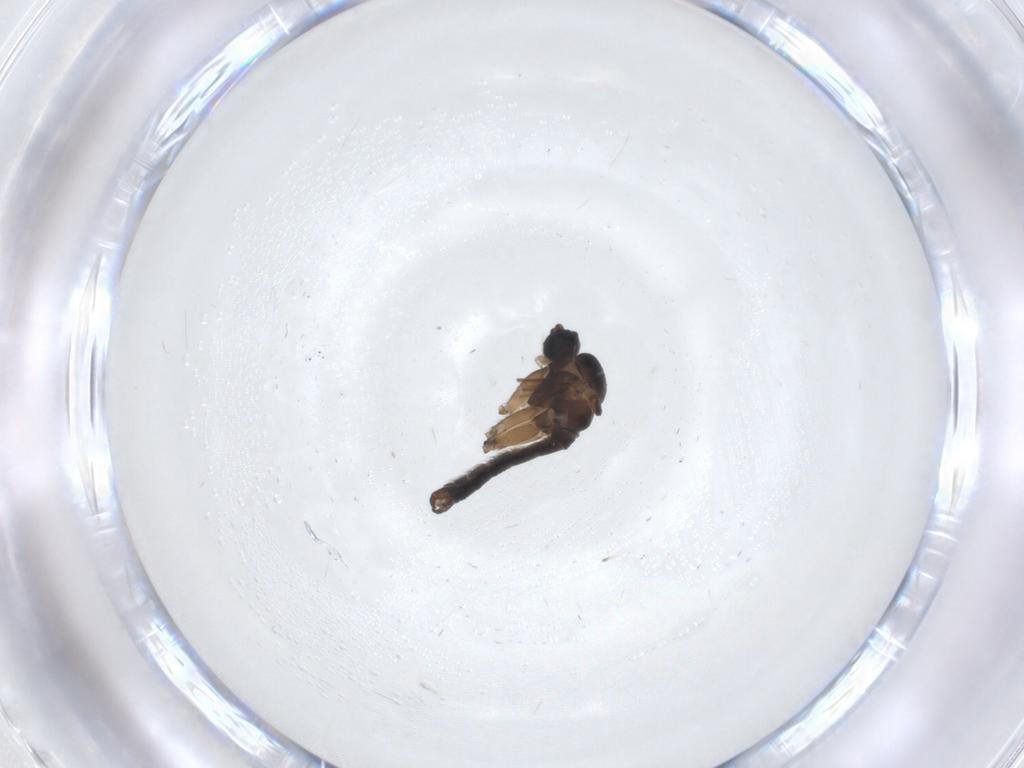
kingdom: Animalia
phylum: Arthropoda
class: Insecta
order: Diptera
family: Sciaridae
